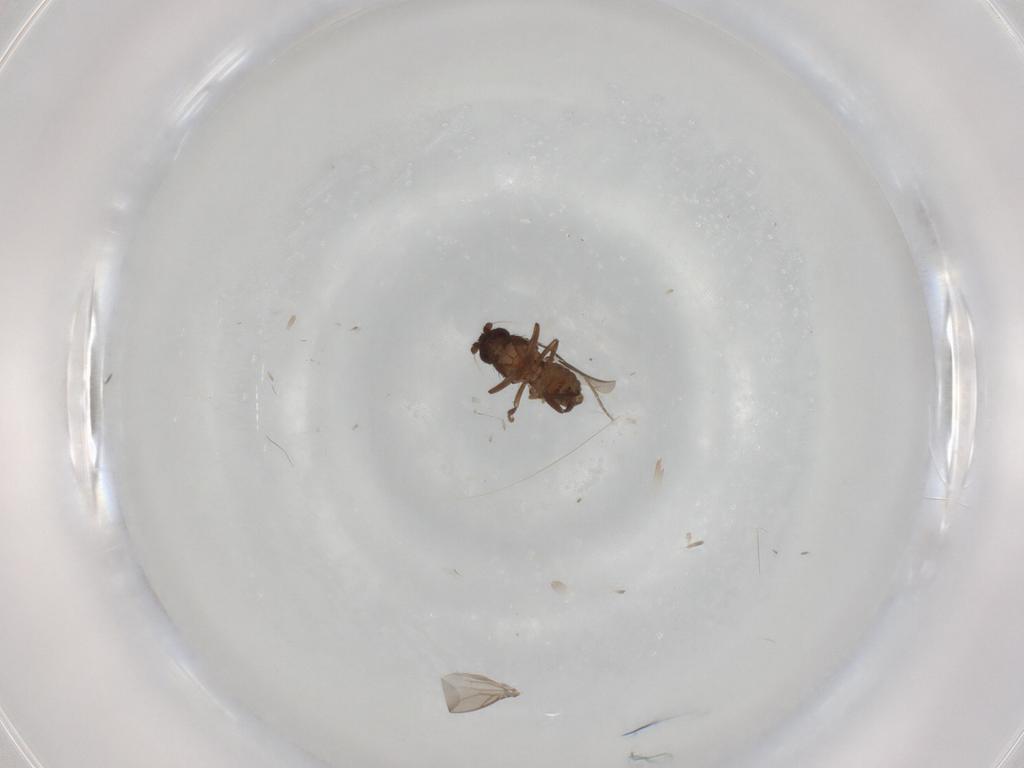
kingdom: Animalia
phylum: Arthropoda
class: Insecta
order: Diptera
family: Sphaeroceridae
